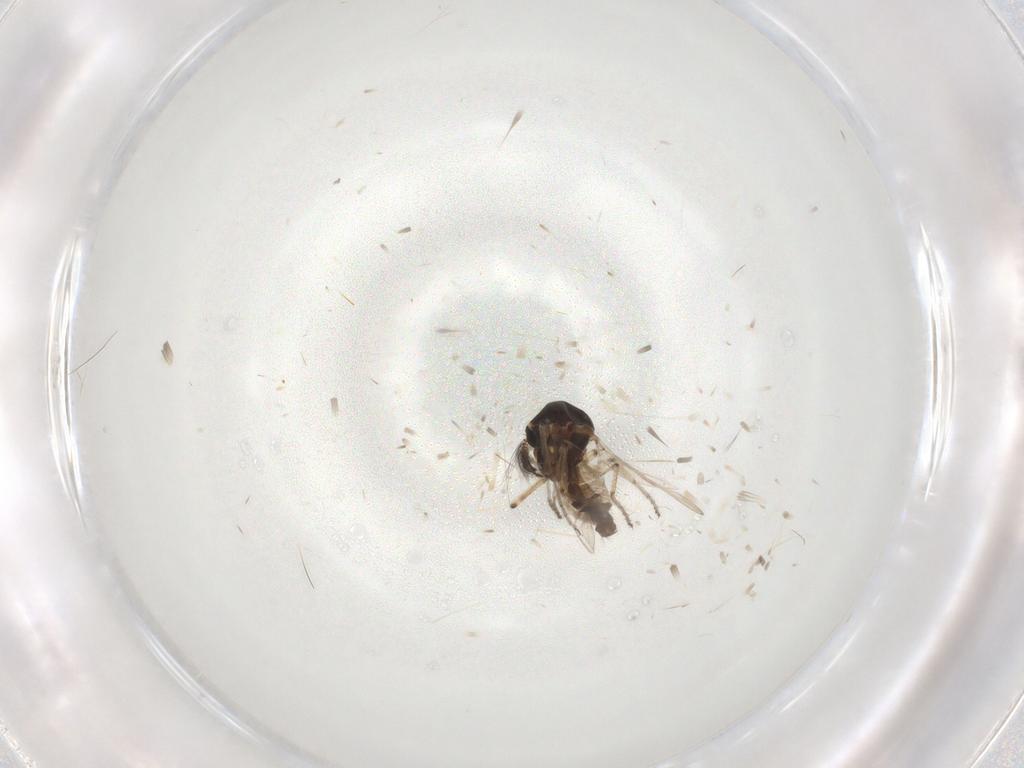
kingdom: Animalia
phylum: Arthropoda
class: Insecta
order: Diptera
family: Ceratopogonidae
